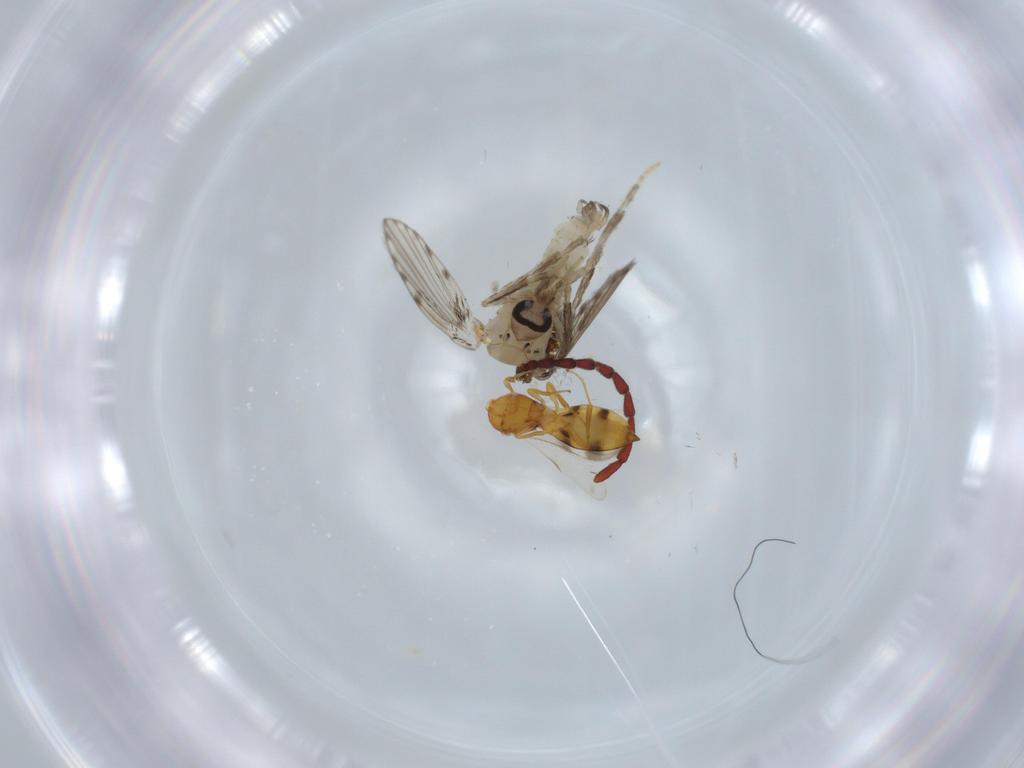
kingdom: Animalia
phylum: Arthropoda
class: Insecta
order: Diptera
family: Psychodidae
